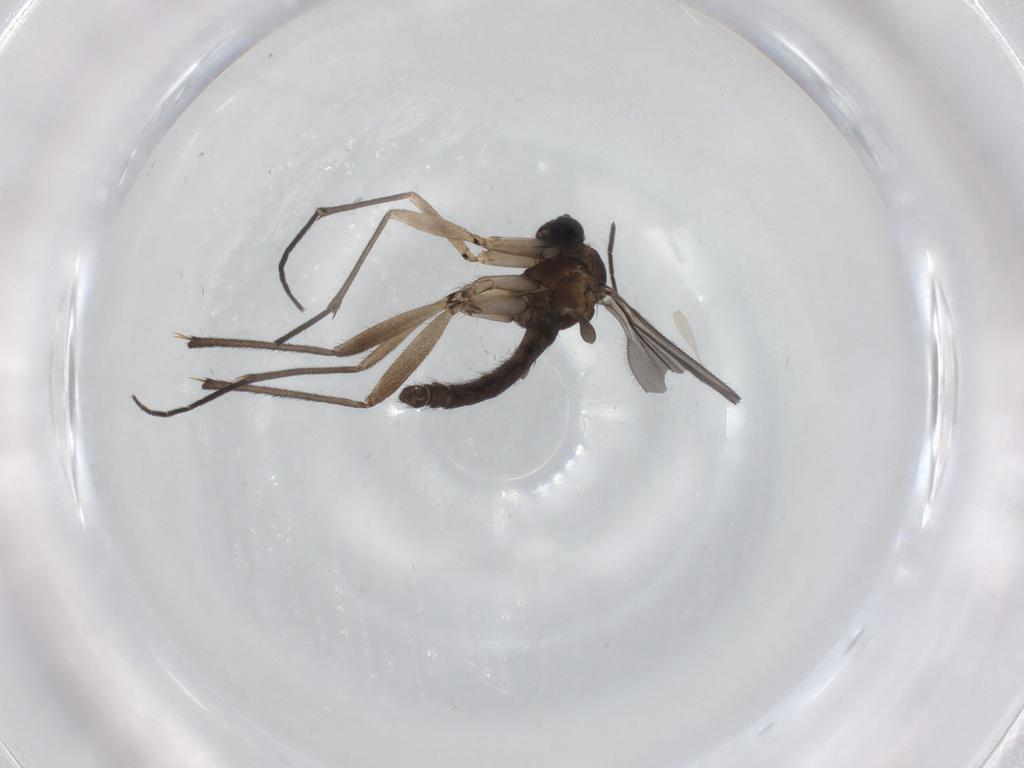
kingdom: Animalia
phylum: Arthropoda
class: Insecta
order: Diptera
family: Sciaridae
